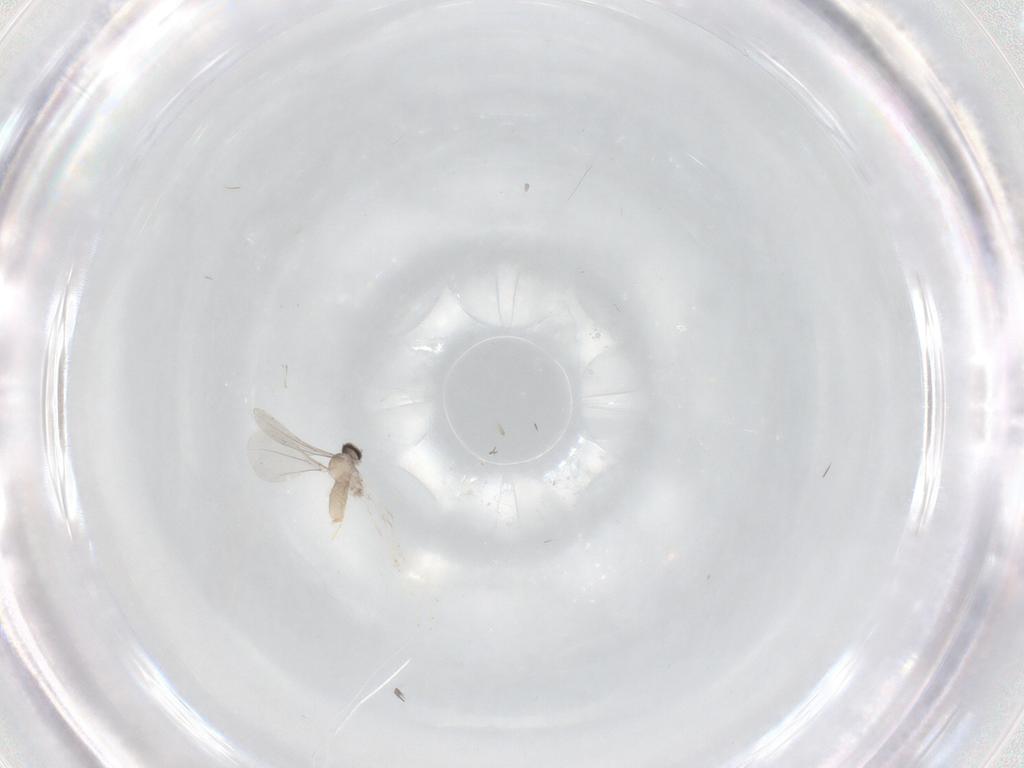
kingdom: Animalia
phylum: Arthropoda
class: Insecta
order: Diptera
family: Cecidomyiidae
